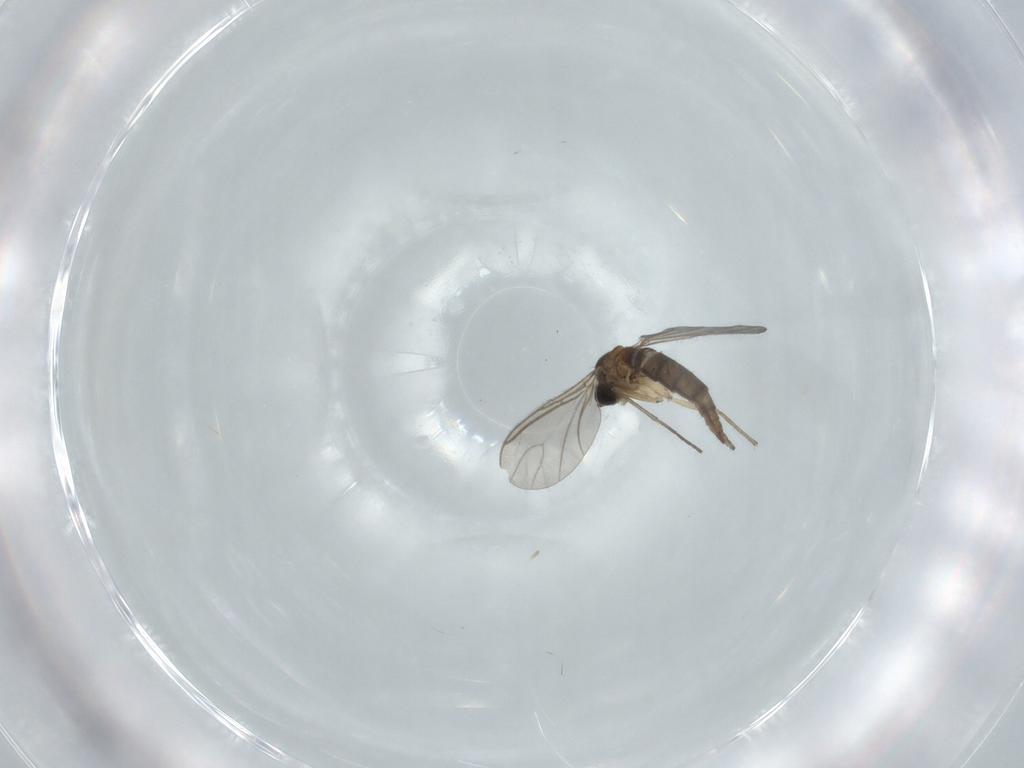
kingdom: Animalia
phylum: Arthropoda
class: Insecta
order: Diptera
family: Sciaridae
